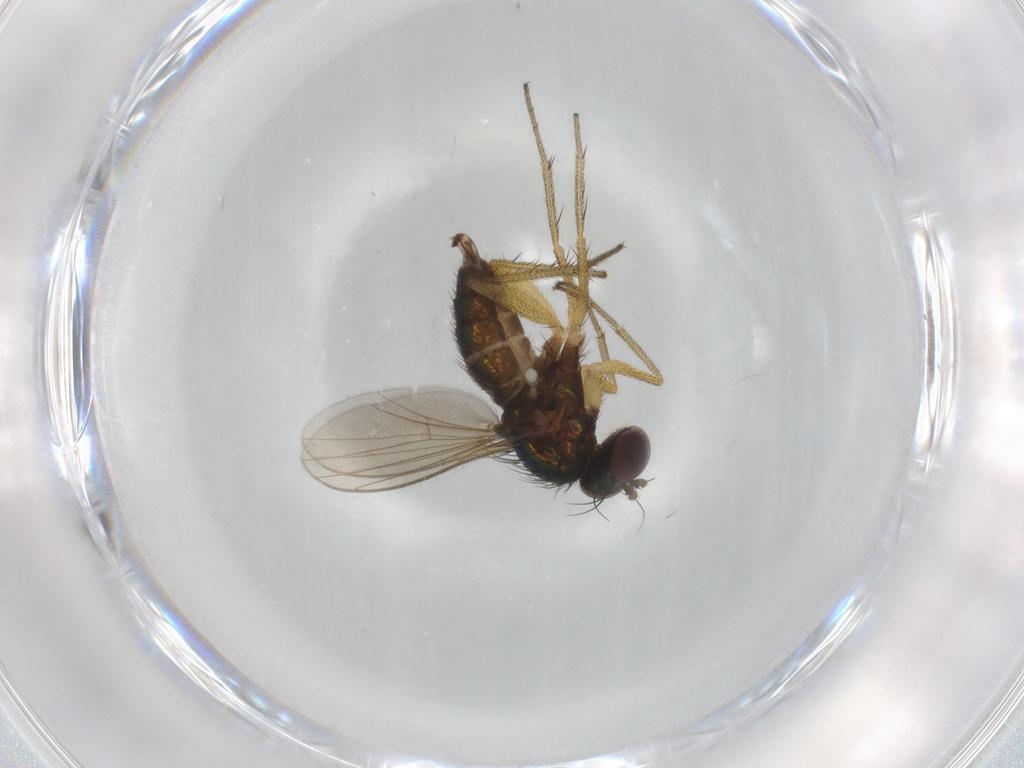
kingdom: Animalia
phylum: Arthropoda
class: Insecta
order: Diptera
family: Dolichopodidae
